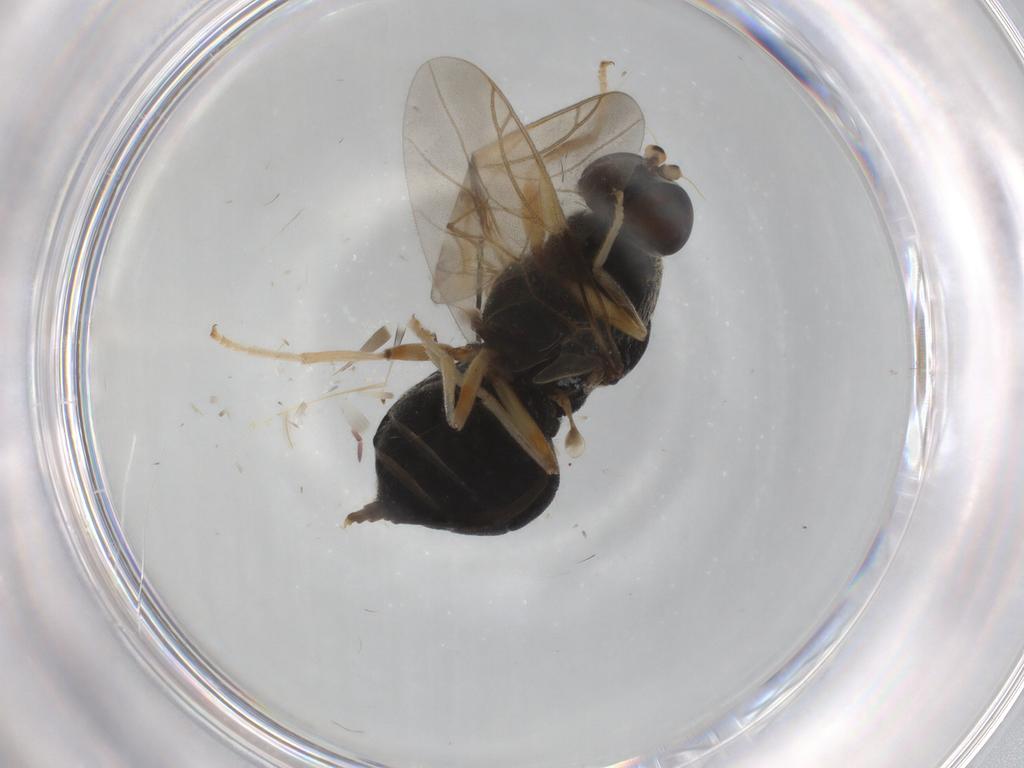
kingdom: Animalia
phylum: Arthropoda
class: Insecta
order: Diptera
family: Stratiomyidae
